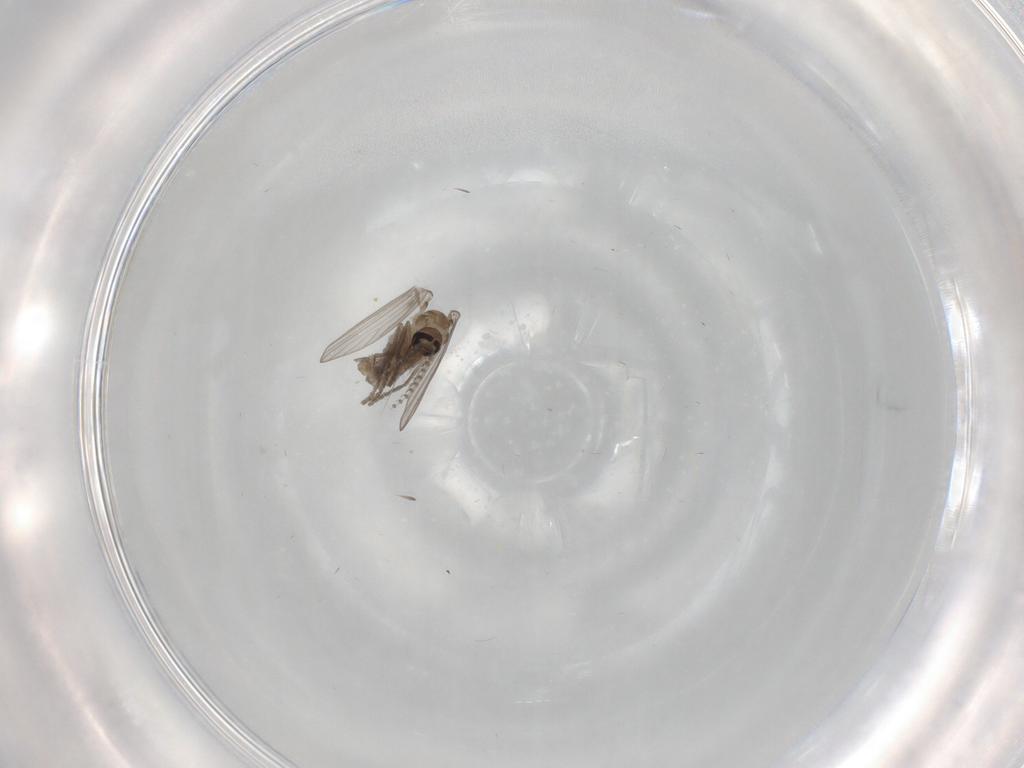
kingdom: Animalia
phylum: Arthropoda
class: Insecta
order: Diptera
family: Psychodidae
